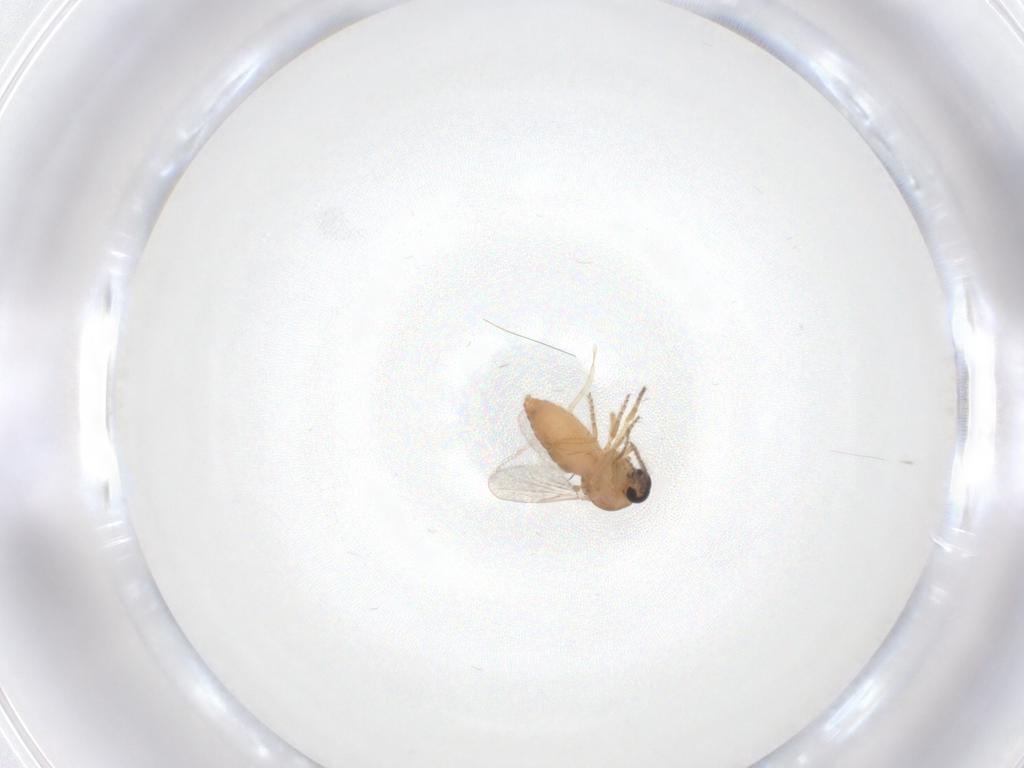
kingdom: Animalia
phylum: Arthropoda
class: Insecta
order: Diptera
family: Ceratopogonidae
